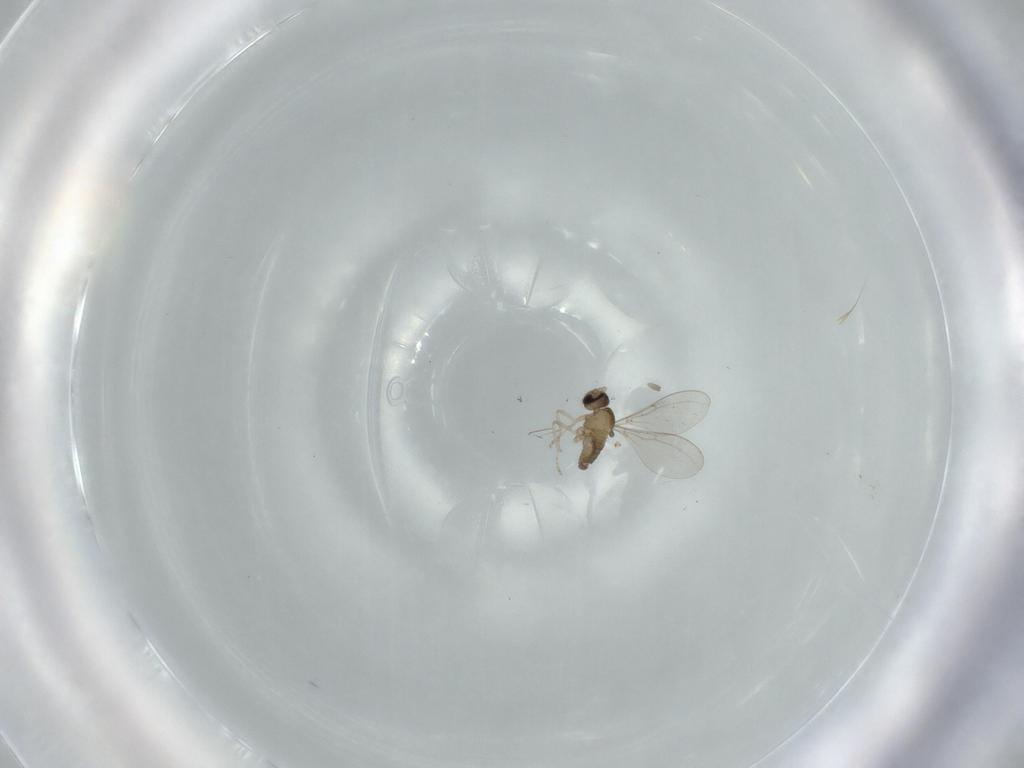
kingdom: Animalia
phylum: Arthropoda
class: Insecta
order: Diptera
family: Cecidomyiidae
